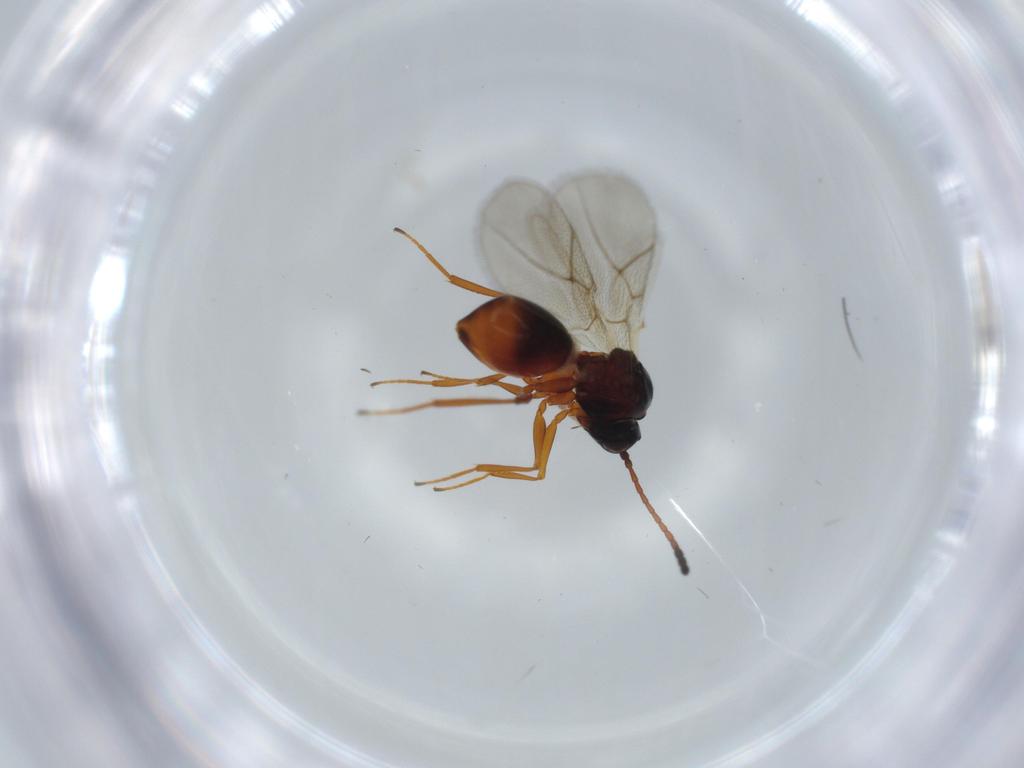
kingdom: Animalia
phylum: Arthropoda
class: Insecta
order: Hymenoptera
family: Figitidae
